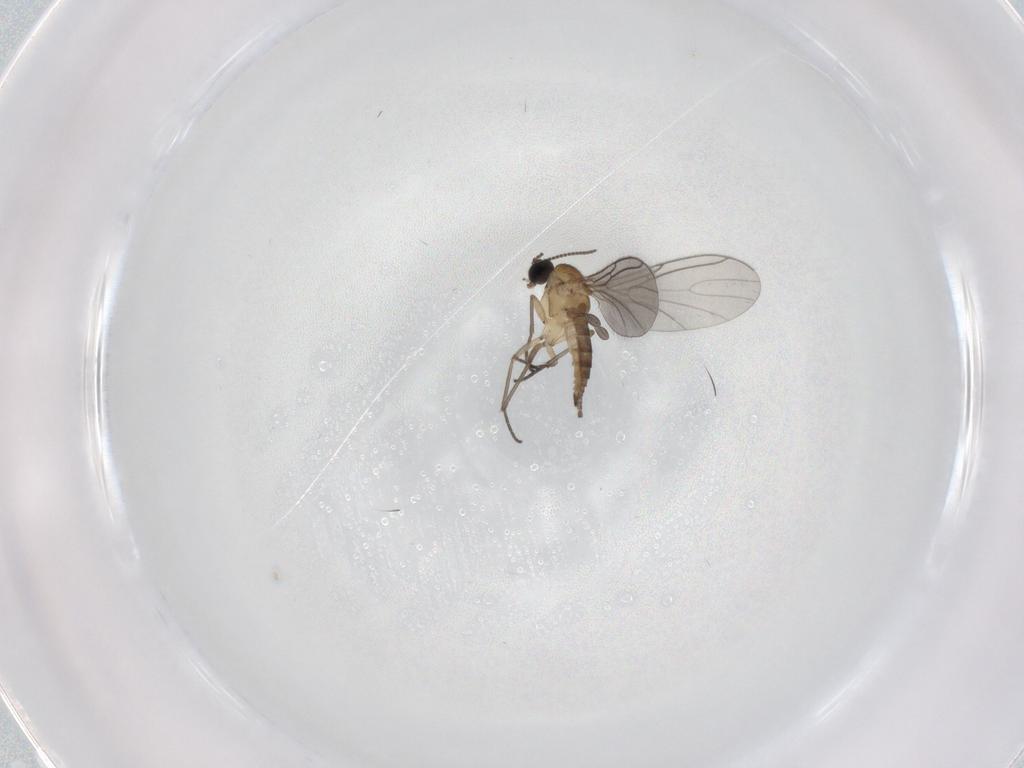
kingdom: Animalia
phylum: Arthropoda
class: Insecta
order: Diptera
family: Sciaridae
